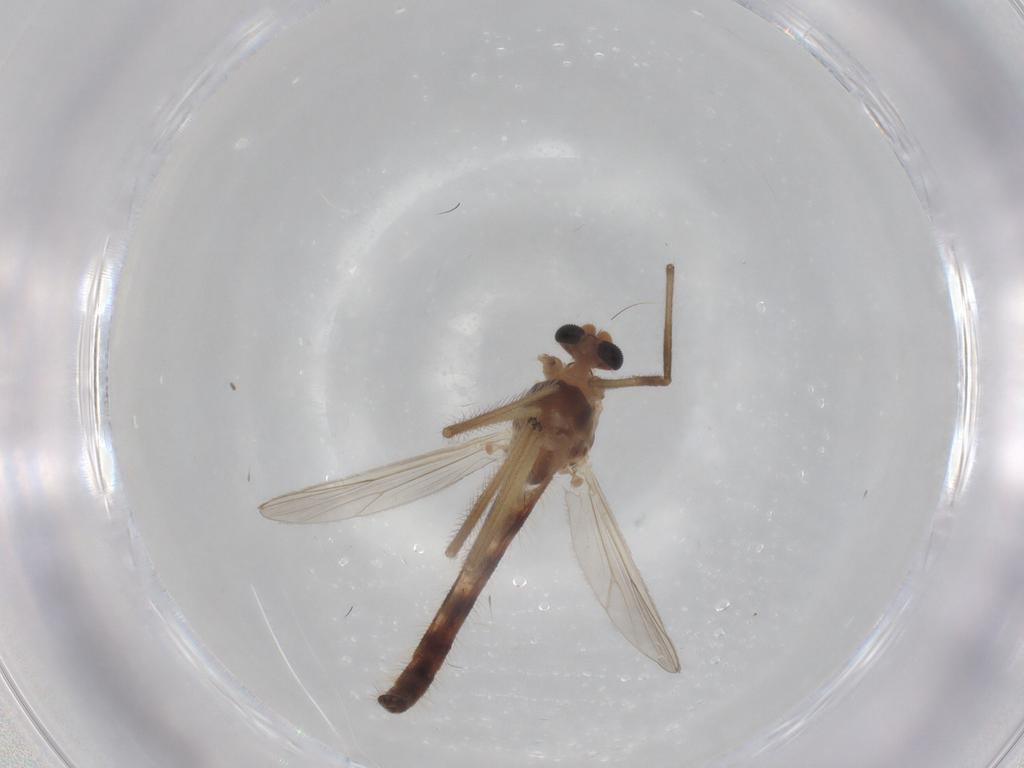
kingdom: Animalia
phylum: Arthropoda
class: Insecta
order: Diptera
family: Chironomidae
